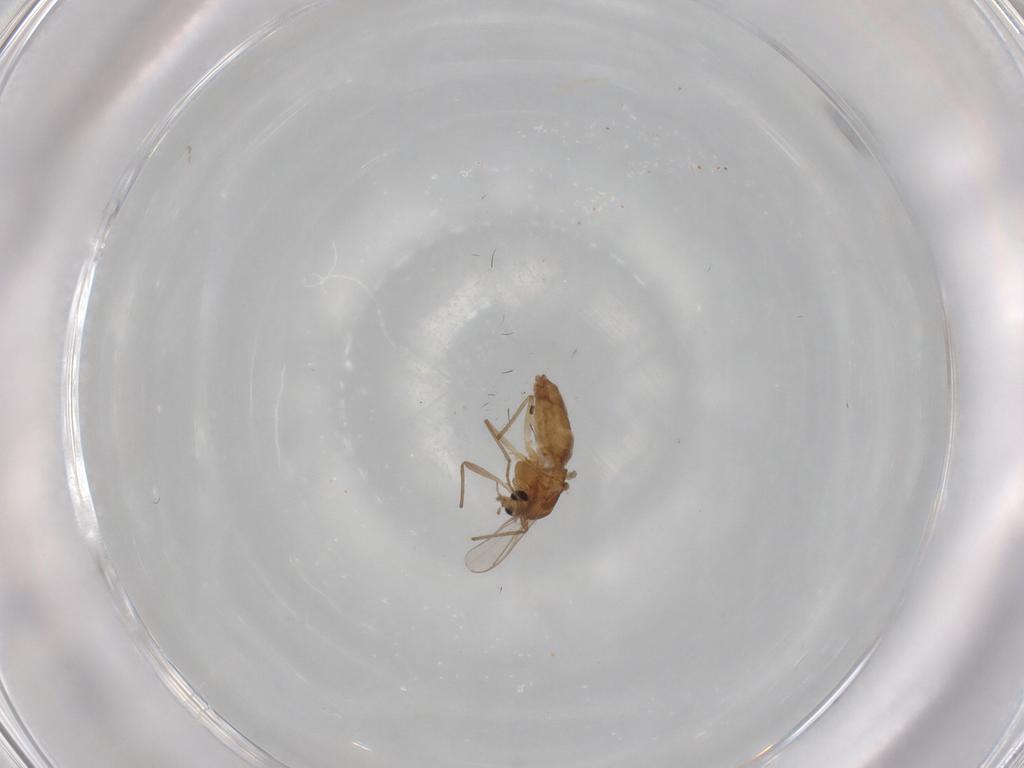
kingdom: Animalia
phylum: Arthropoda
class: Insecta
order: Diptera
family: Chironomidae
